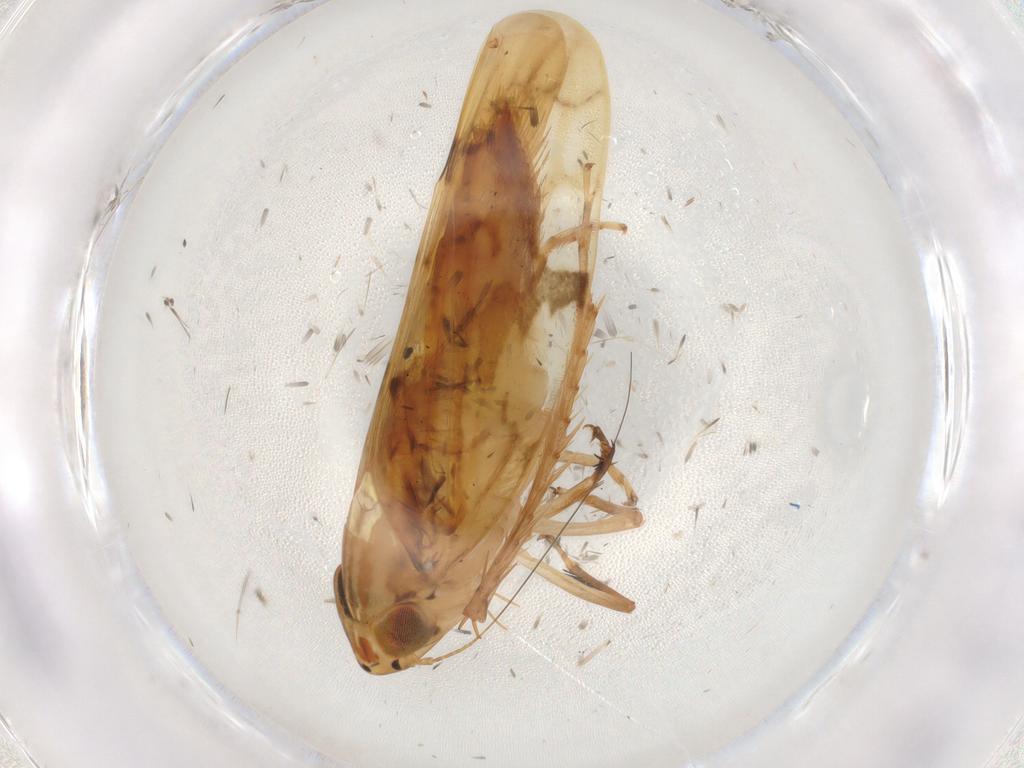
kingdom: Animalia
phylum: Arthropoda
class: Insecta
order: Hemiptera
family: Cicadellidae
